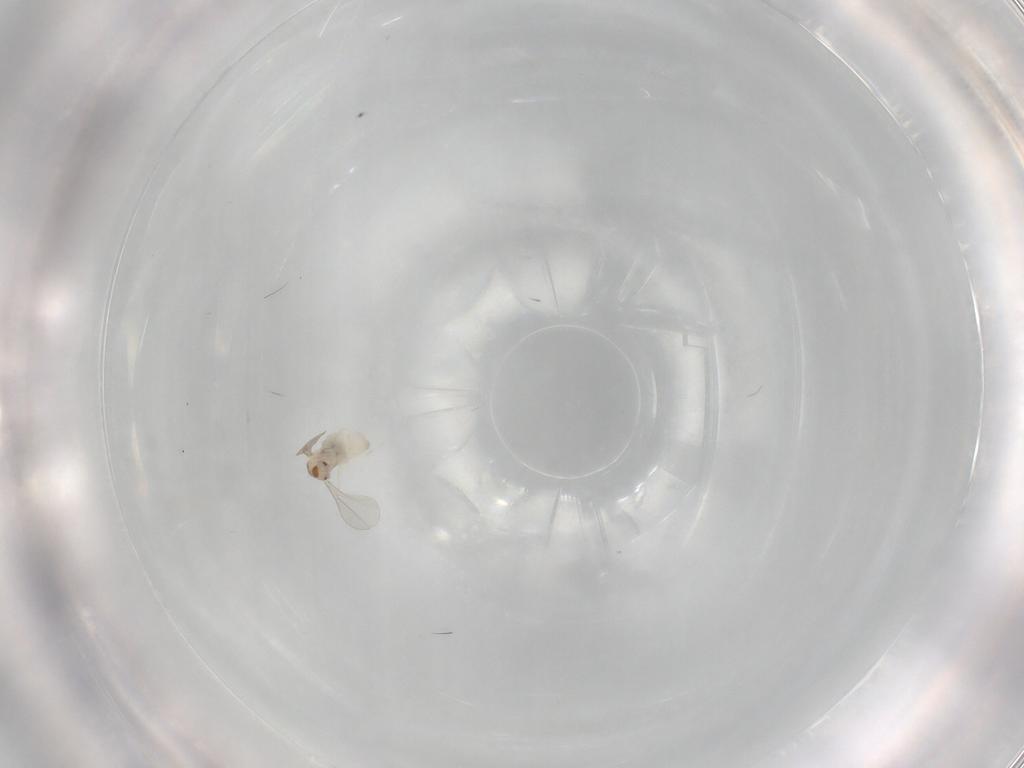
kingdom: Animalia
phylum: Arthropoda
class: Insecta
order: Diptera
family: Cecidomyiidae
